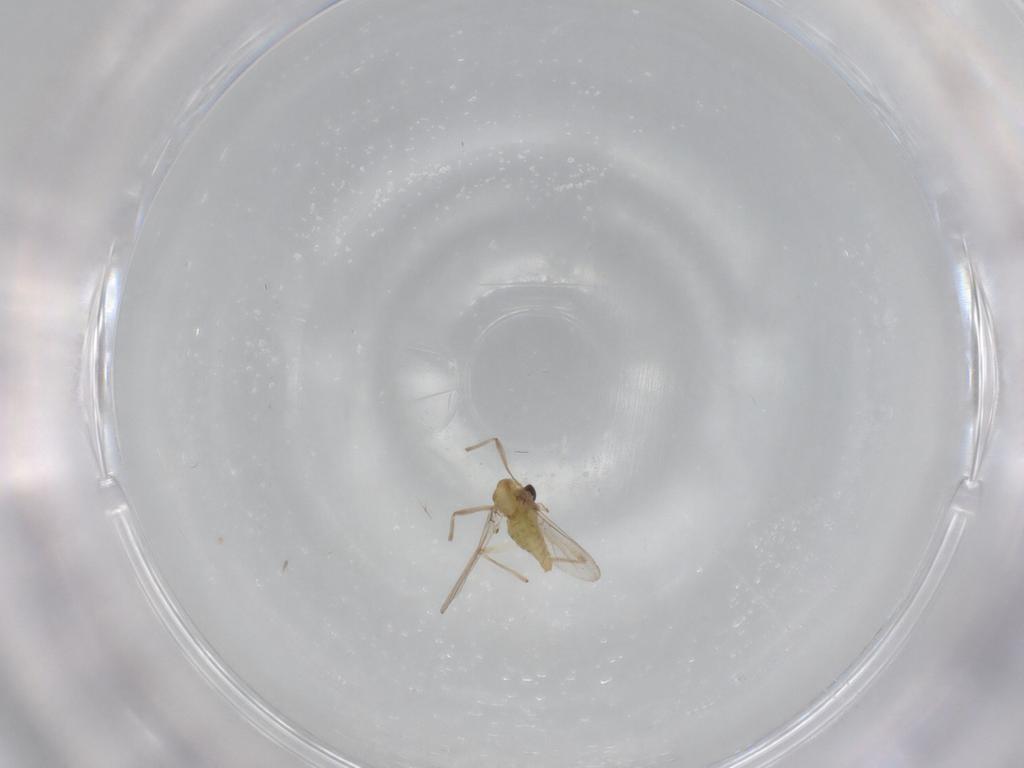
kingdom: Animalia
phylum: Arthropoda
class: Insecta
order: Diptera
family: Chironomidae
